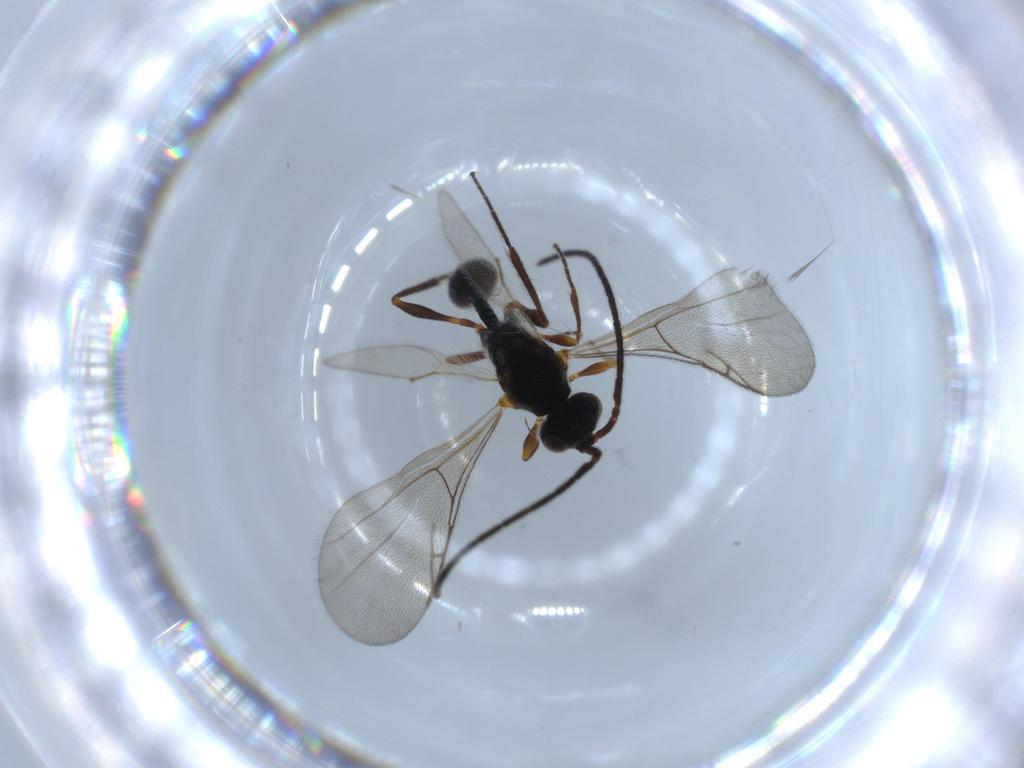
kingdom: Animalia
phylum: Arthropoda
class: Insecta
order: Hymenoptera
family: Diapriidae
